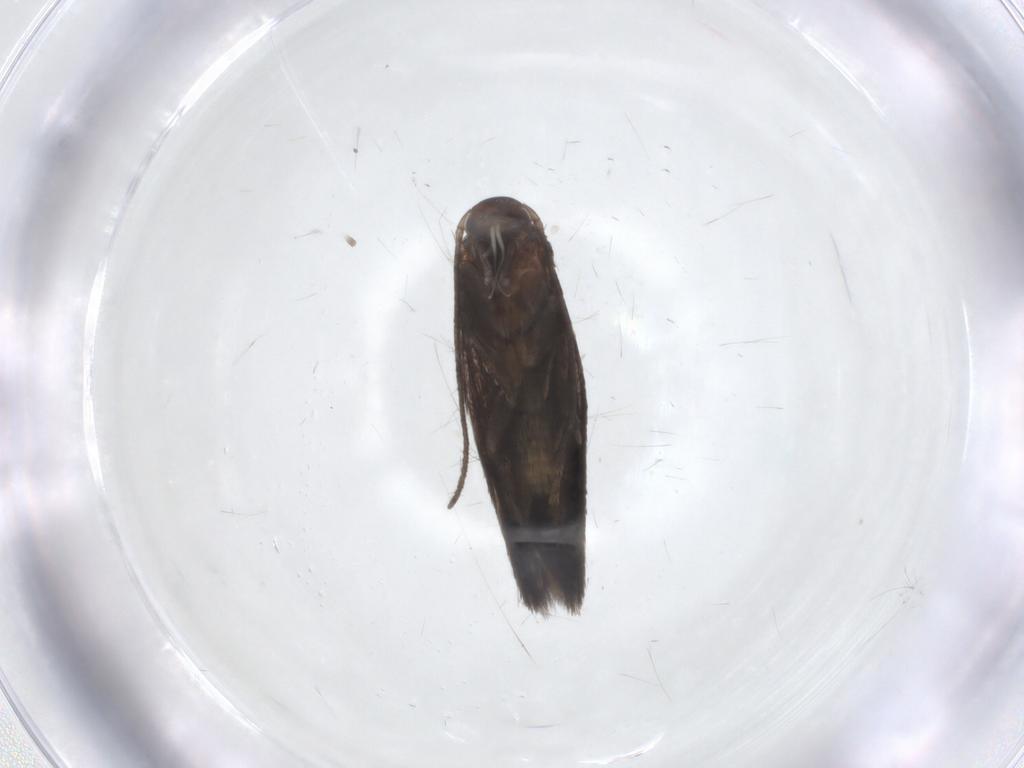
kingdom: Animalia
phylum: Arthropoda
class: Insecta
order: Lepidoptera
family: Elachistidae
